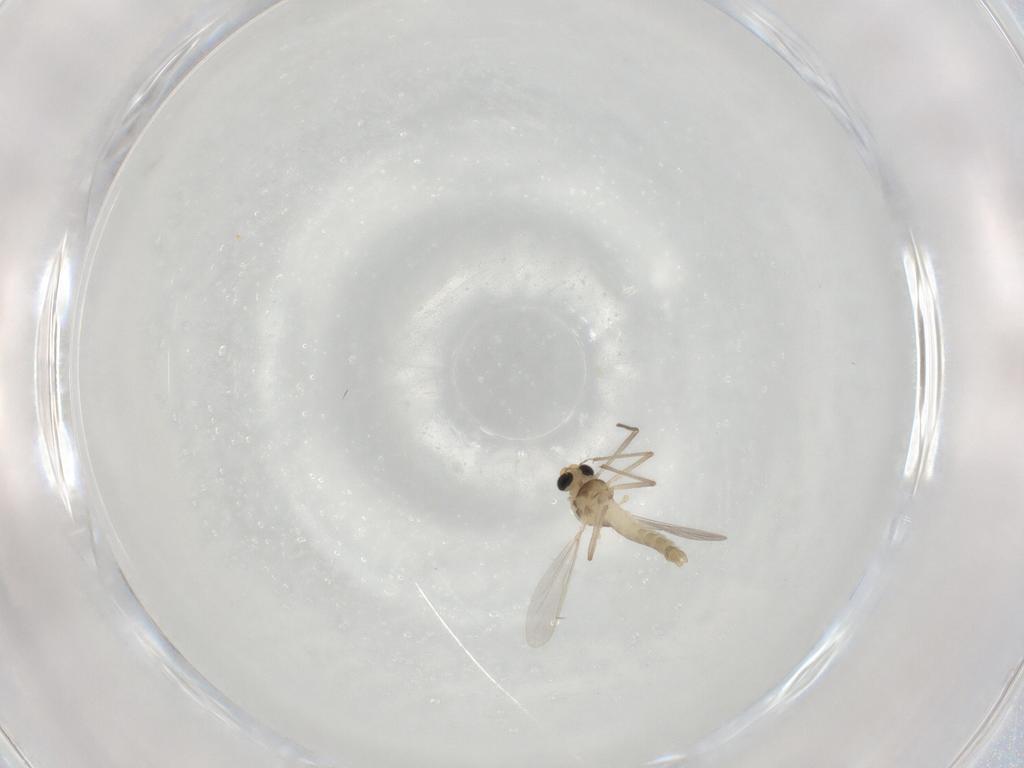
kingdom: Animalia
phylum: Arthropoda
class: Insecta
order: Diptera
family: Chironomidae
